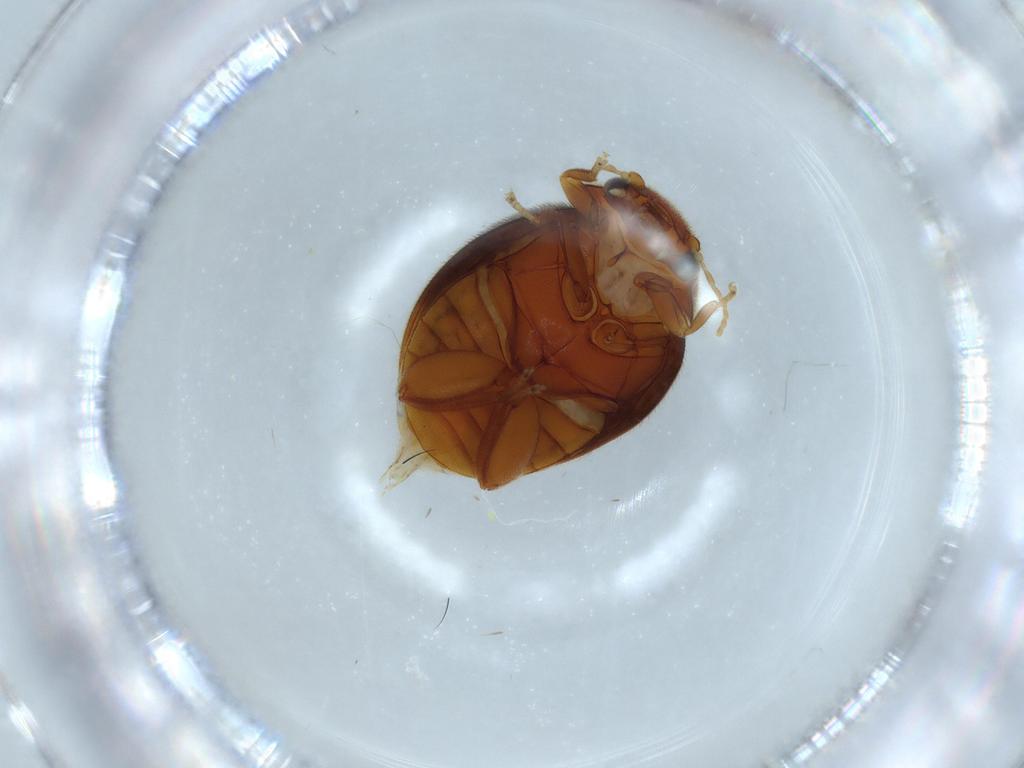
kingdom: Animalia
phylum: Arthropoda
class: Insecta
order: Coleoptera
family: Scirtidae
